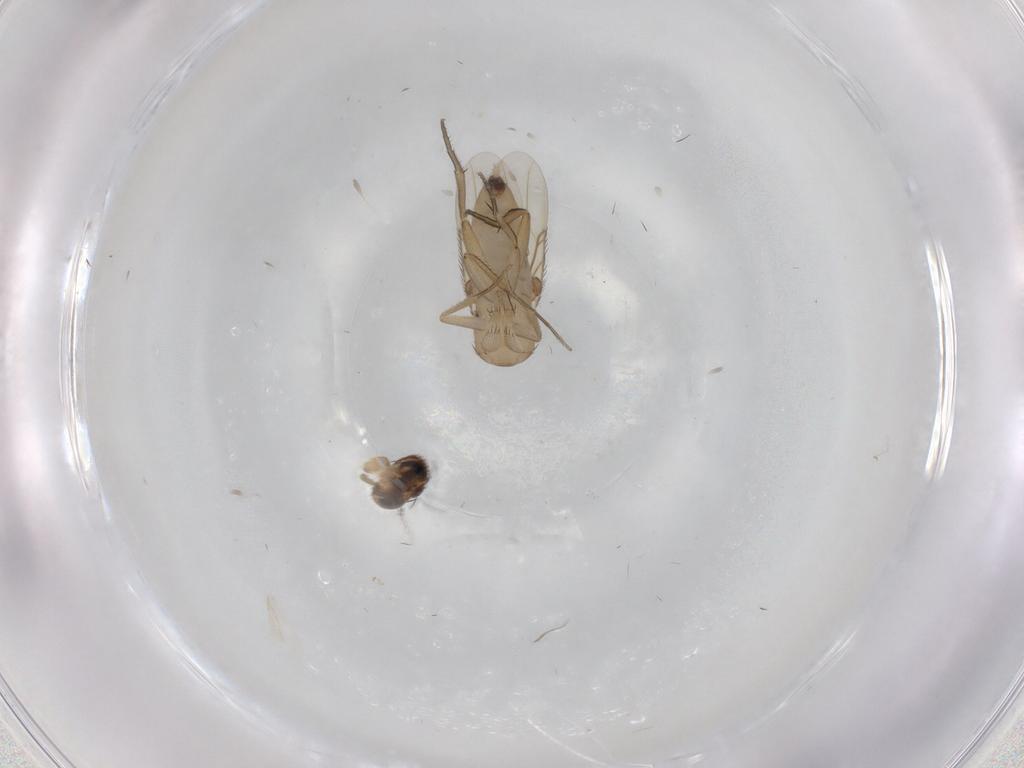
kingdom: Animalia
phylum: Arthropoda
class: Insecta
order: Diptera
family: Limoniidae
